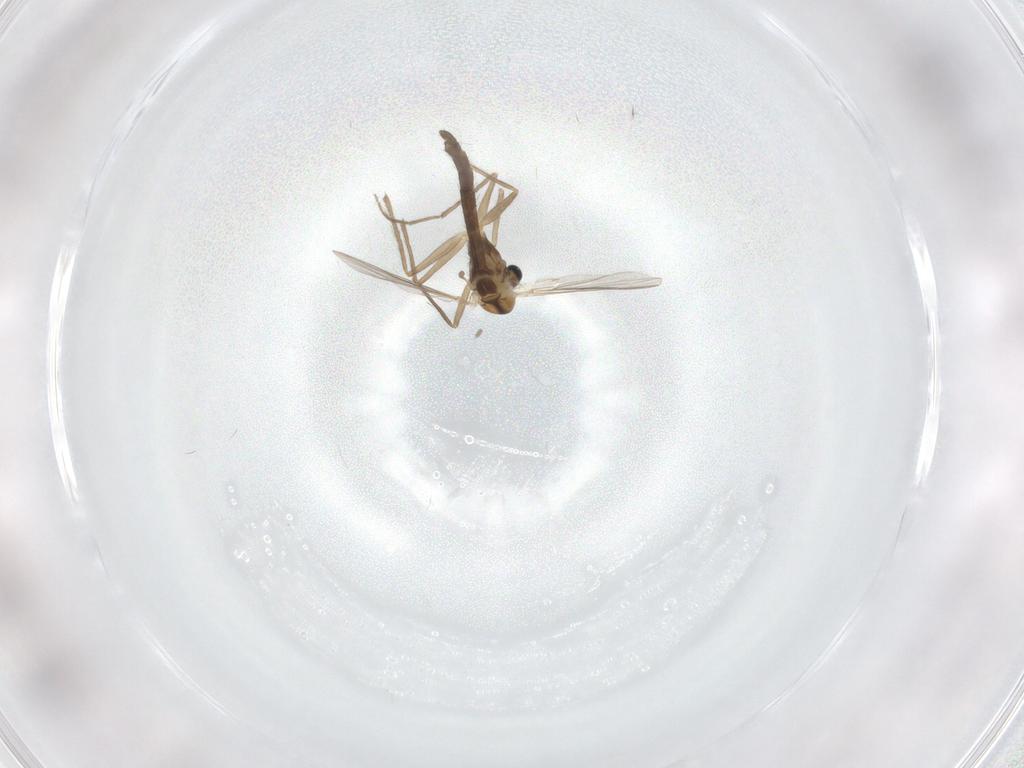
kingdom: Animalia
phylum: Arthropoda
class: Insecta
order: Diptera
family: Chironomidae
